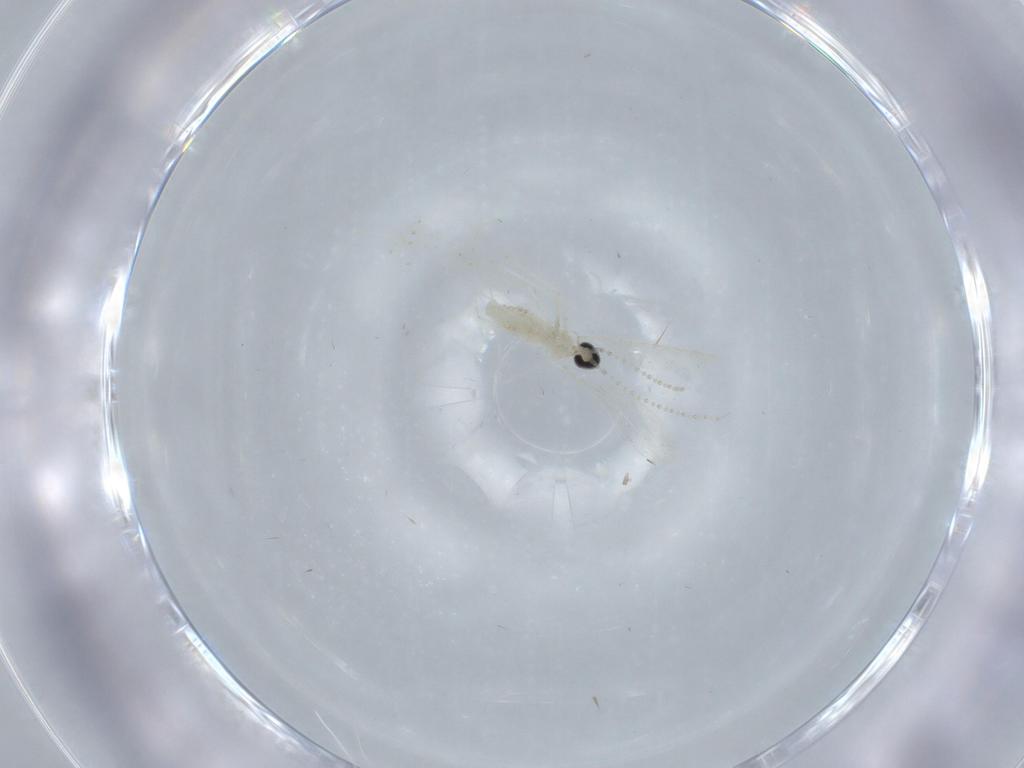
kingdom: Animalia
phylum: Arthropoda
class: Insecta
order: Diptera
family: Cecidomyiidae
